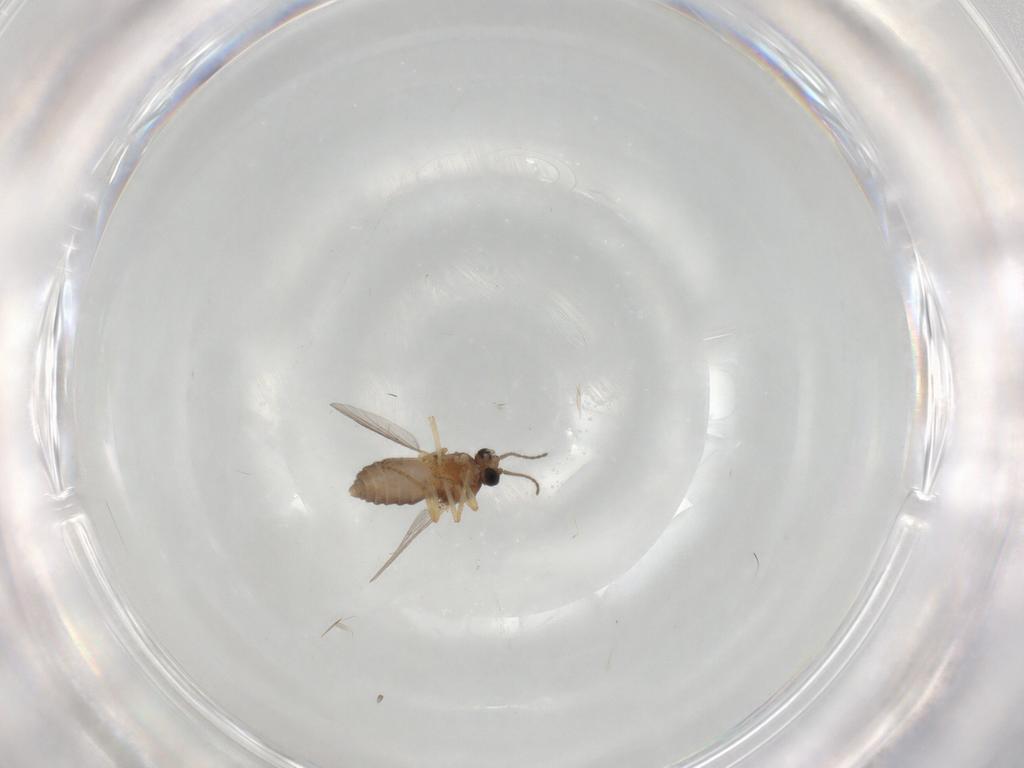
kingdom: Animalia
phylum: Arthropoda
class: Insecta
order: Diptera
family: Ceratopogonidae
